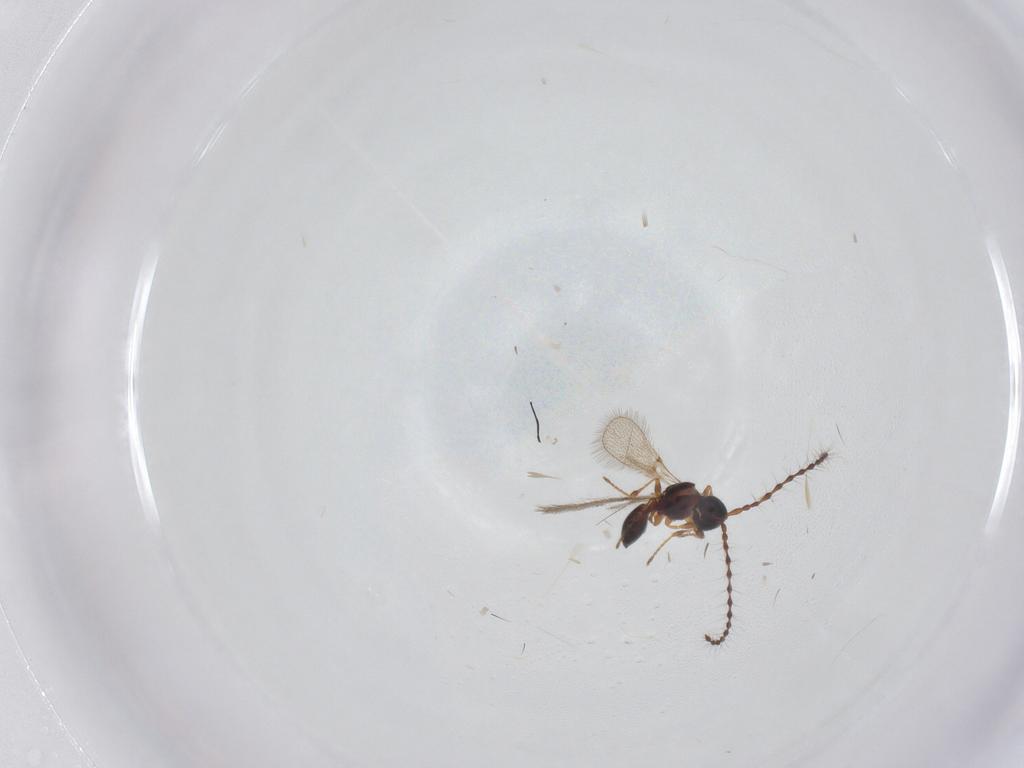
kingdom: Animalia
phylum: Arthropoda
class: Insecta
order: Hymenoptera
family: Diapriidae
